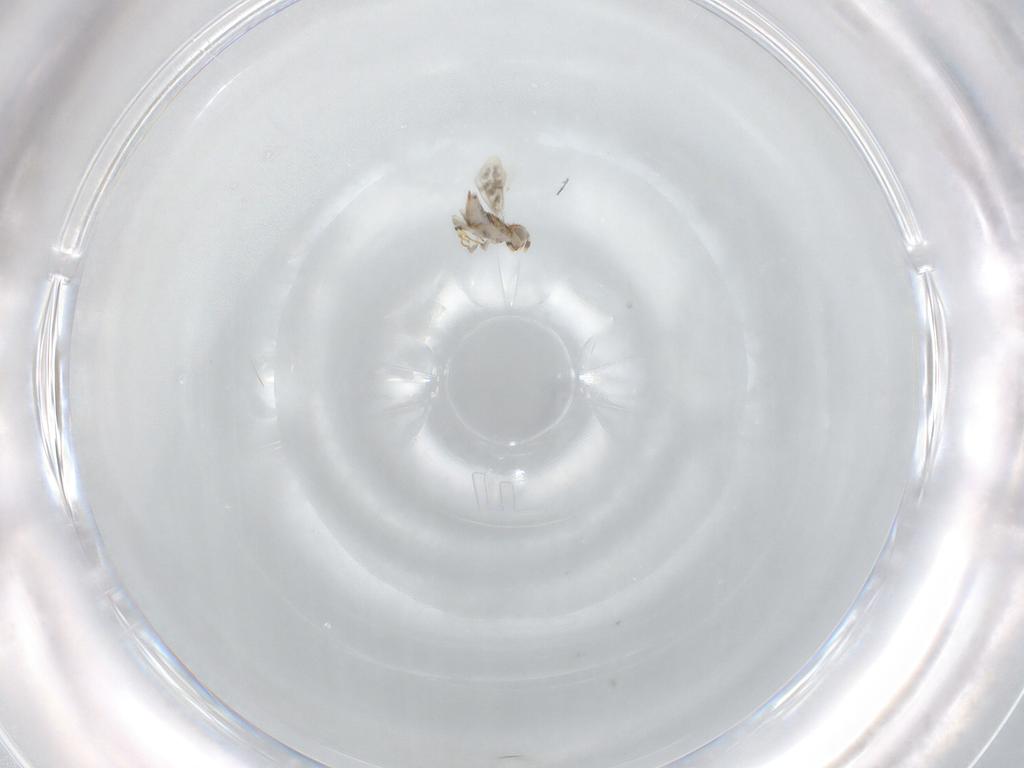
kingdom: Animalia
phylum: Arthropoda
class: Insecta
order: Hymenoptera
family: Aphelinidae
